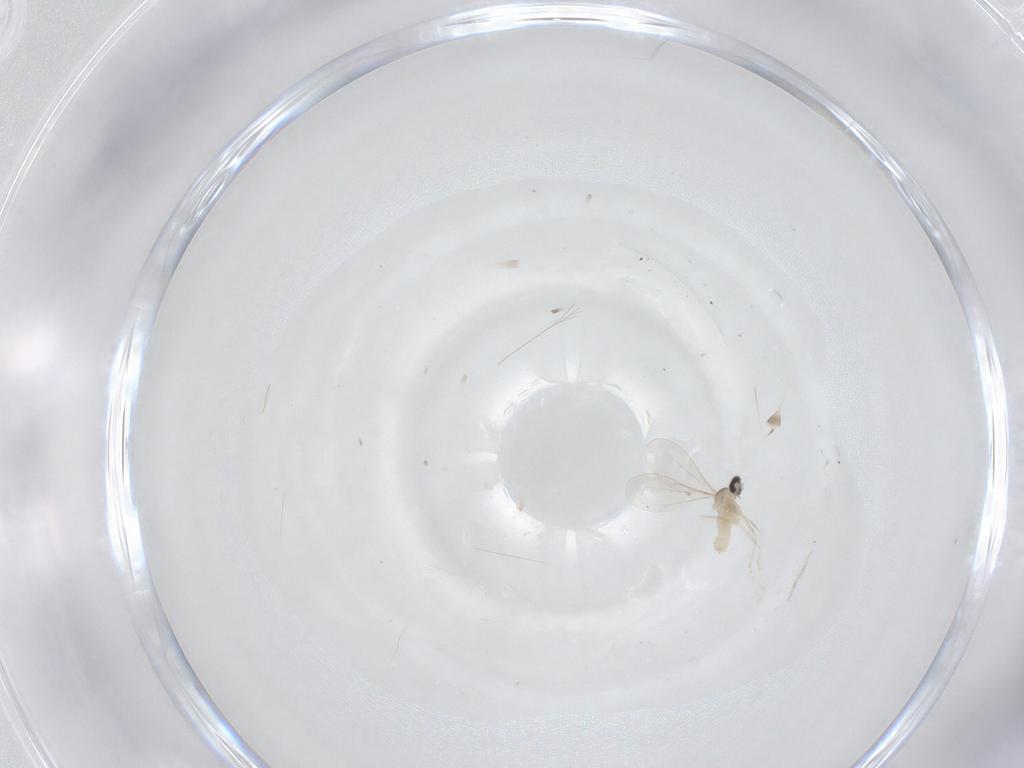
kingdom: Animalia
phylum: Arthropoda
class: Insecta
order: Diptera
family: Cecidomyiidae
